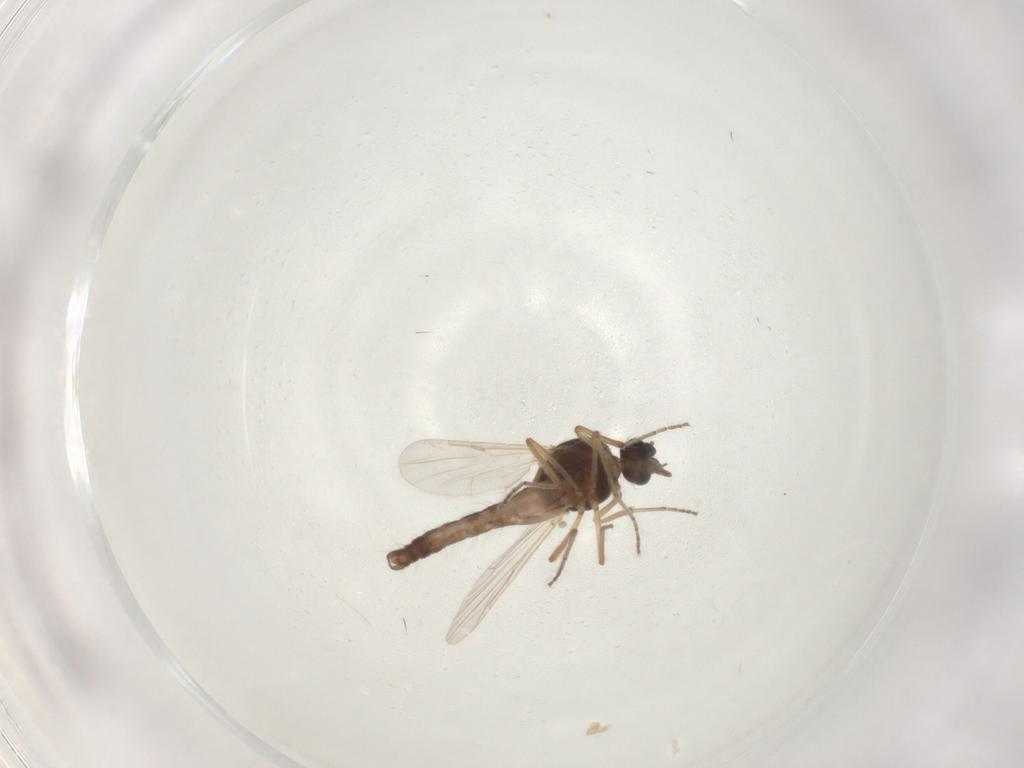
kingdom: Animalia
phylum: Arthropoda
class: Insecta
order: Diptera
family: Ceratopogonidae
